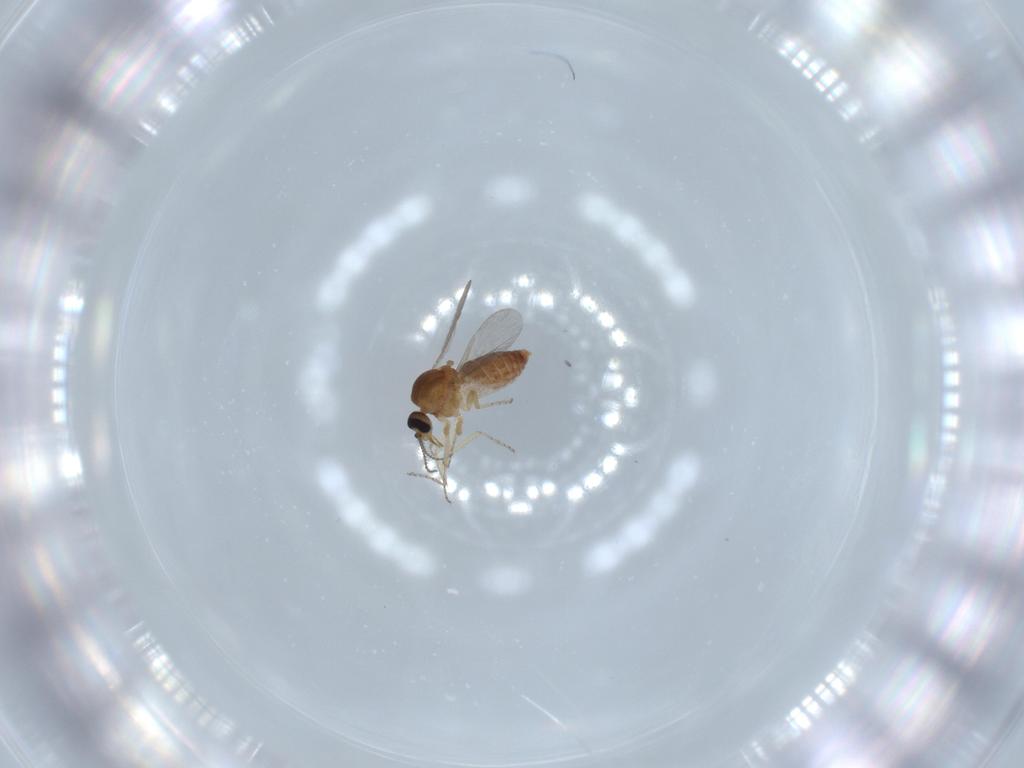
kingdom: Animalia
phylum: Arthropoda
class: Insecta
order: Diptera
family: Ceratopogonidae
